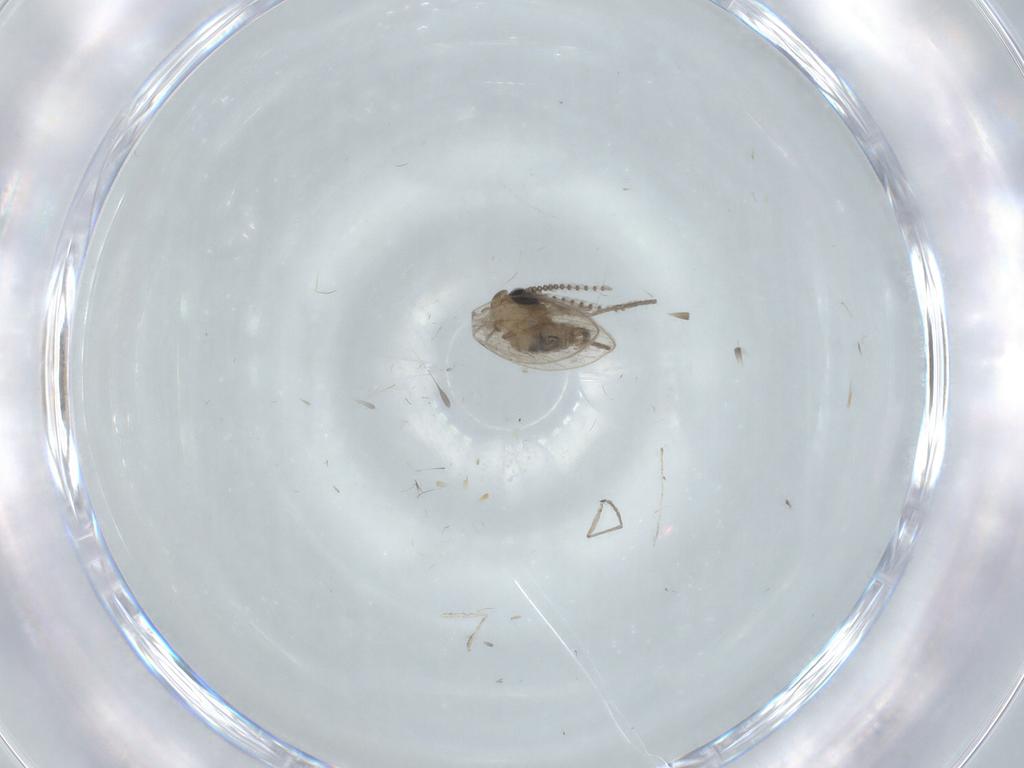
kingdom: Animalia
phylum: Arthropoda
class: Insecta
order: Diptera
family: Psychodidae
